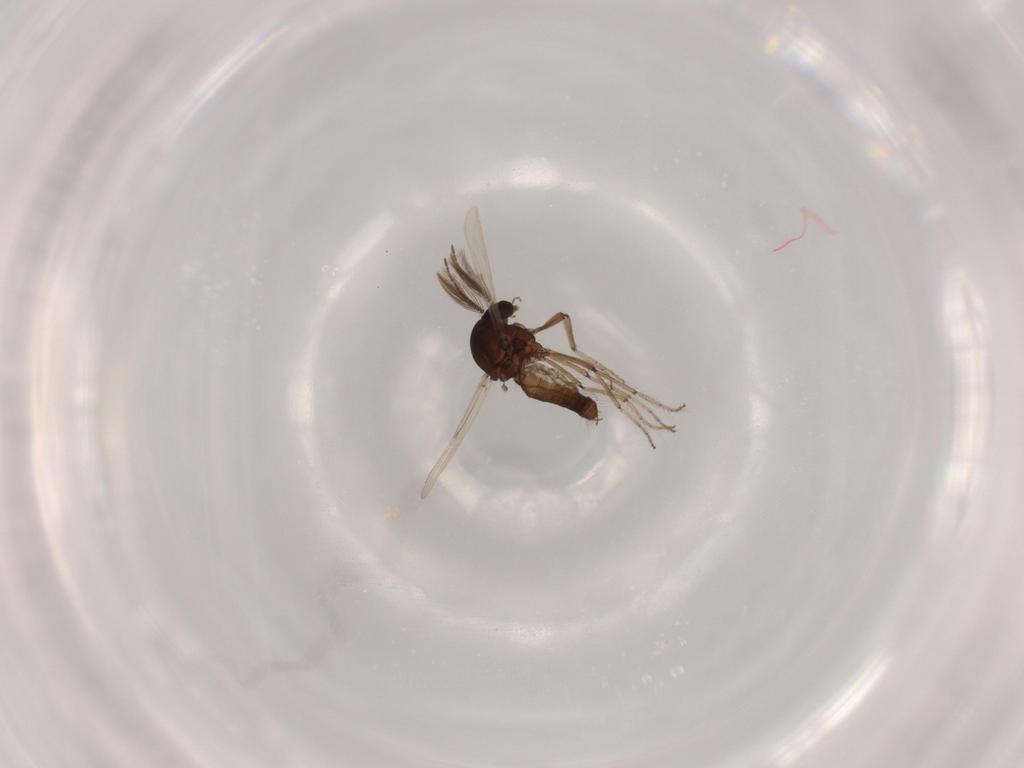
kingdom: Animalia
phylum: Arthropoda
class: Insecta
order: Diptera
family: Chironomidae
